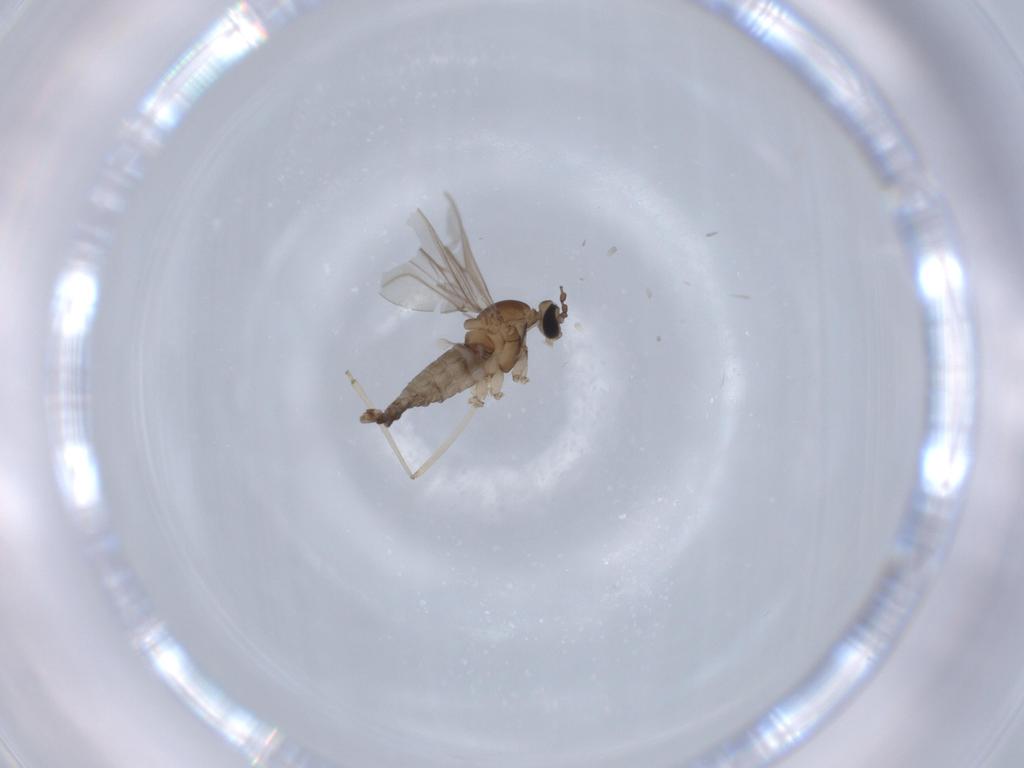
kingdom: Animalia
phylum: Arthropoda
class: Insecta
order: Diptera
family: Cecidomyiidae
